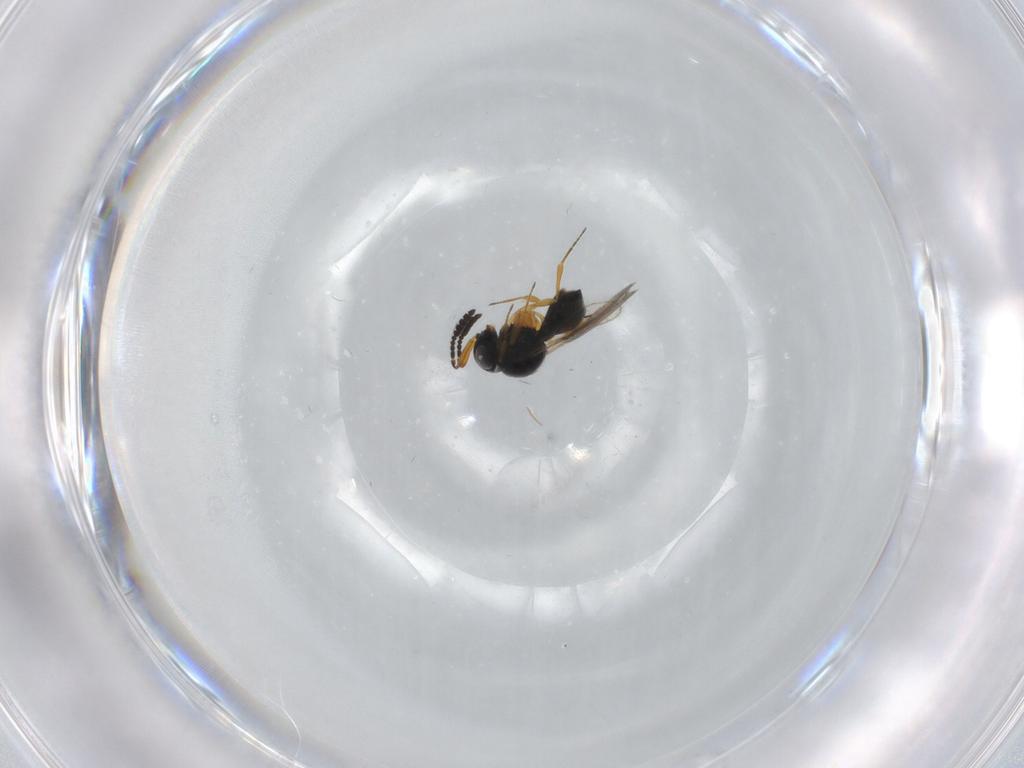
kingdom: Animalia
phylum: Arthropoda
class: Insecta
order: Hymenoptera
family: Scelionidae
